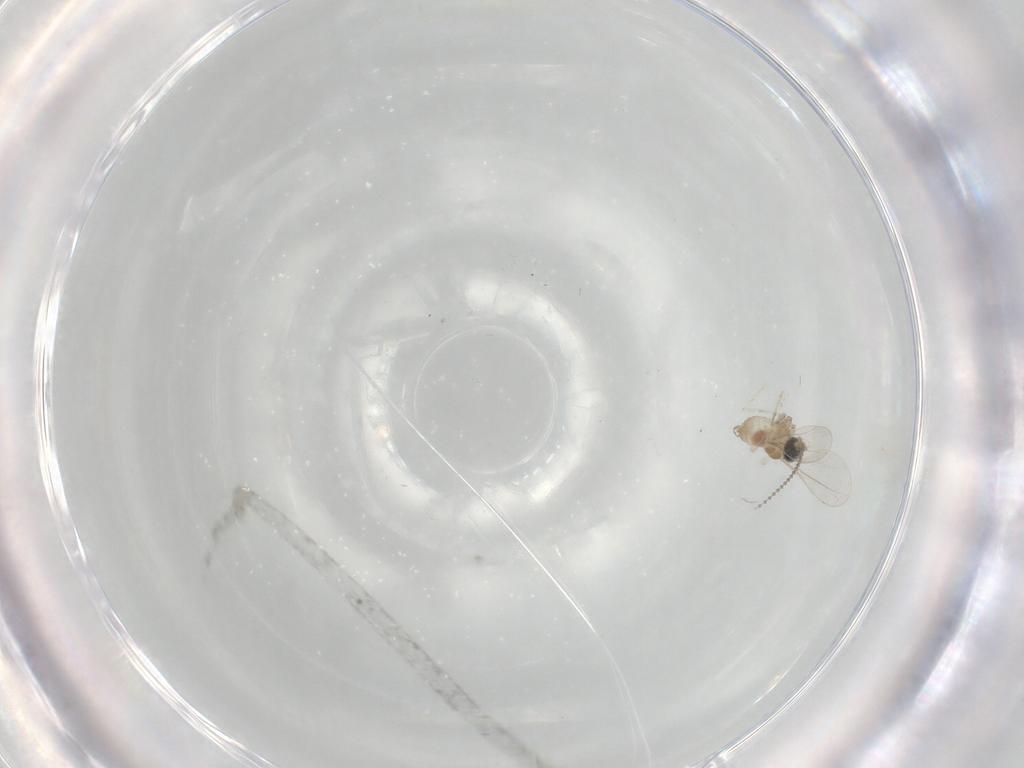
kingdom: Animalia
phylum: Arthropoda
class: Insecta
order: Diptera
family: Cecidomyiidae
